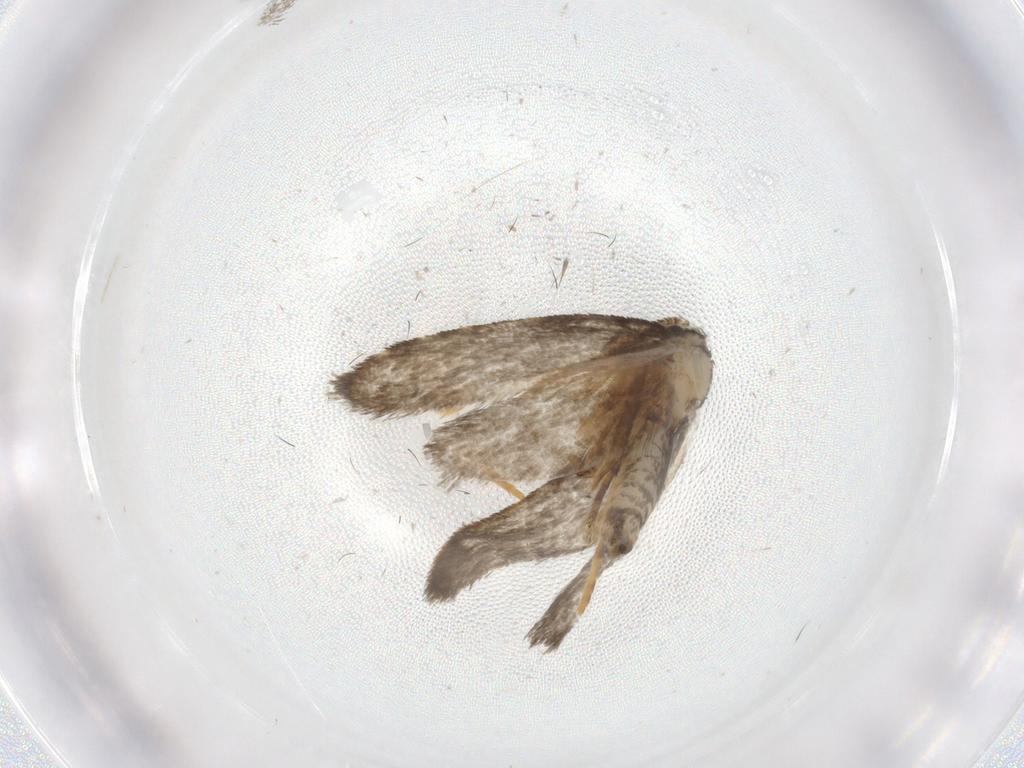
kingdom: Animalia
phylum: Arthropoda
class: Insecta
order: Lepidoptera
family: Psychidae
